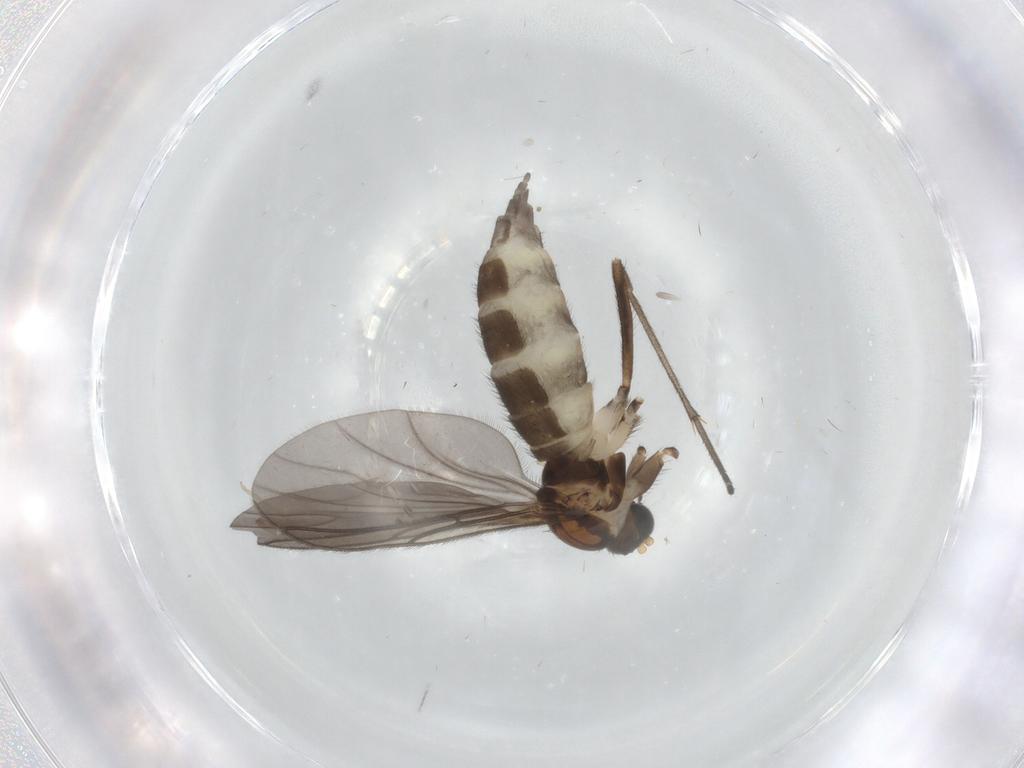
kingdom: Animalia
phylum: Arthropoda
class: Insecta
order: Diptera
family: Sciaridae
